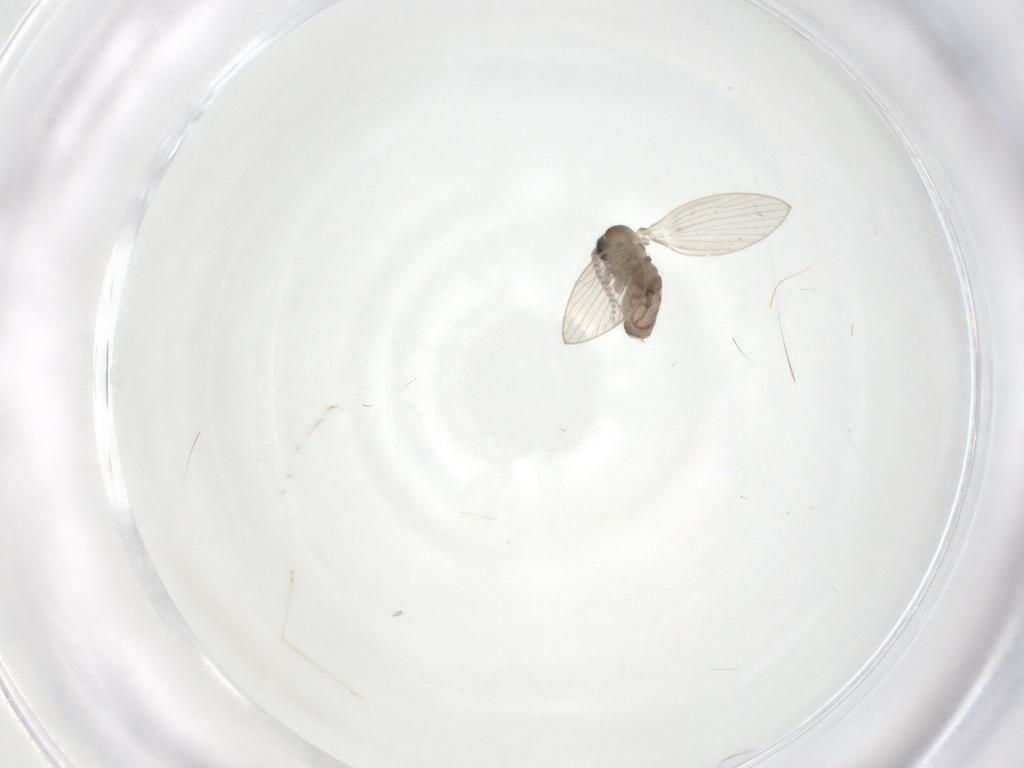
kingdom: Animalia
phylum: Arthropoda
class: Insecta
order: Diptera
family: Psychodidae
